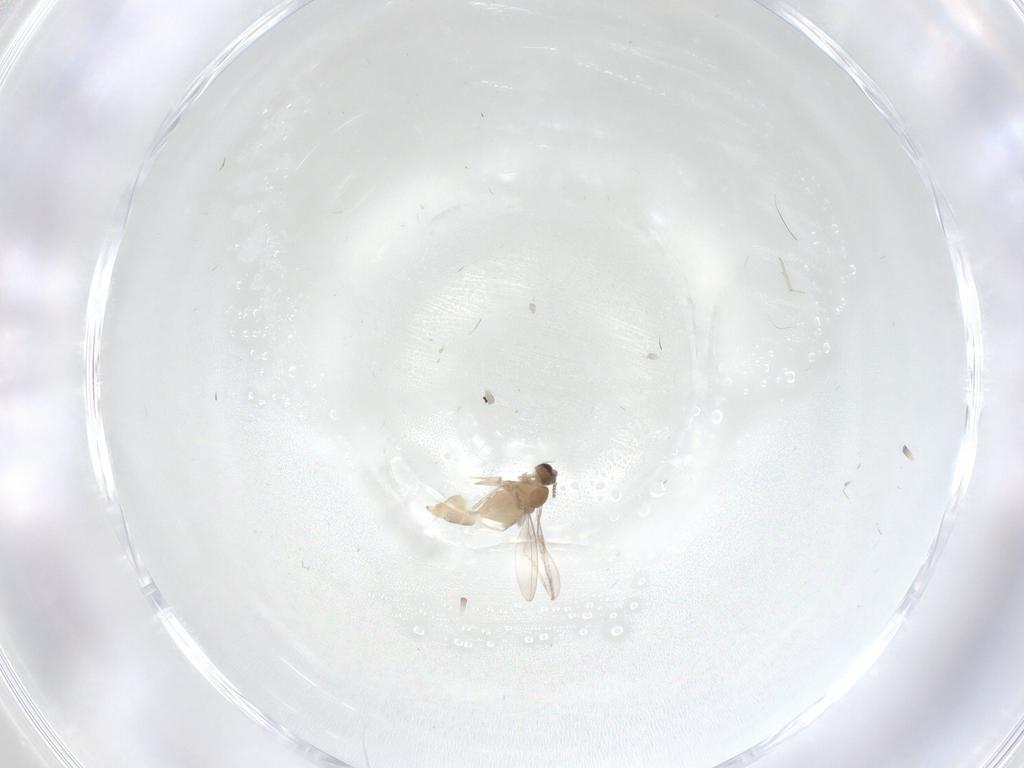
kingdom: Animalia
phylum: Arthropoda
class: Insecta
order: Diptera
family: Cecidomyiidae
